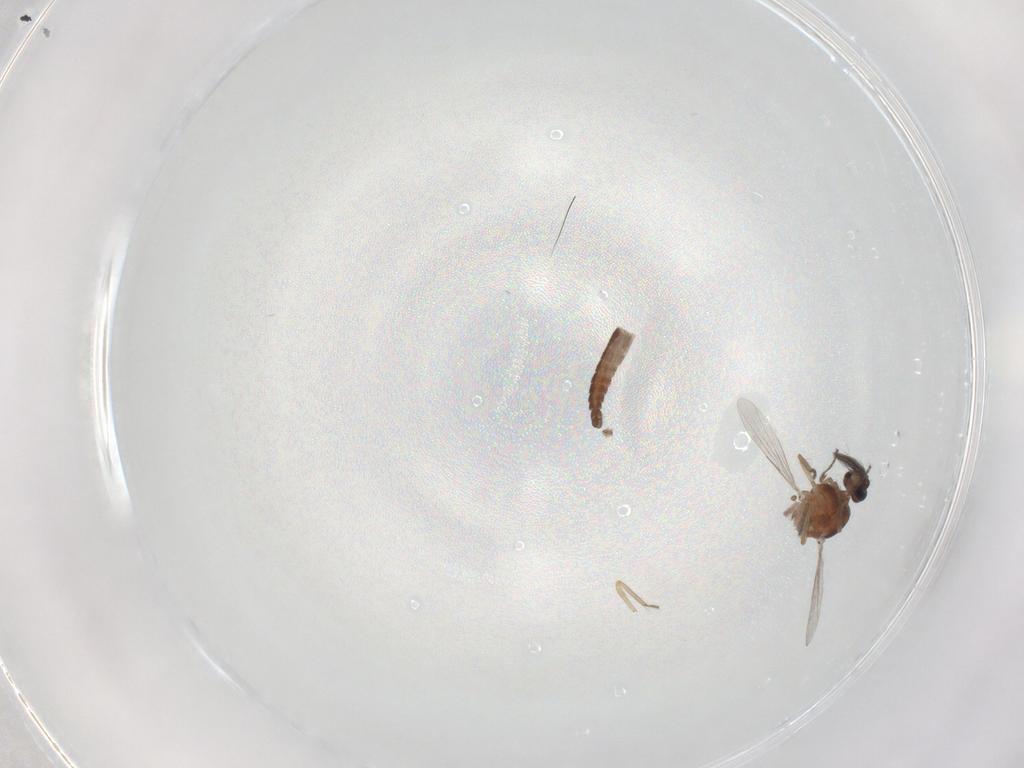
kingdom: Animalia
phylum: Arthropoda
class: Insecta
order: Diptera
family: Ceratopogonidae
